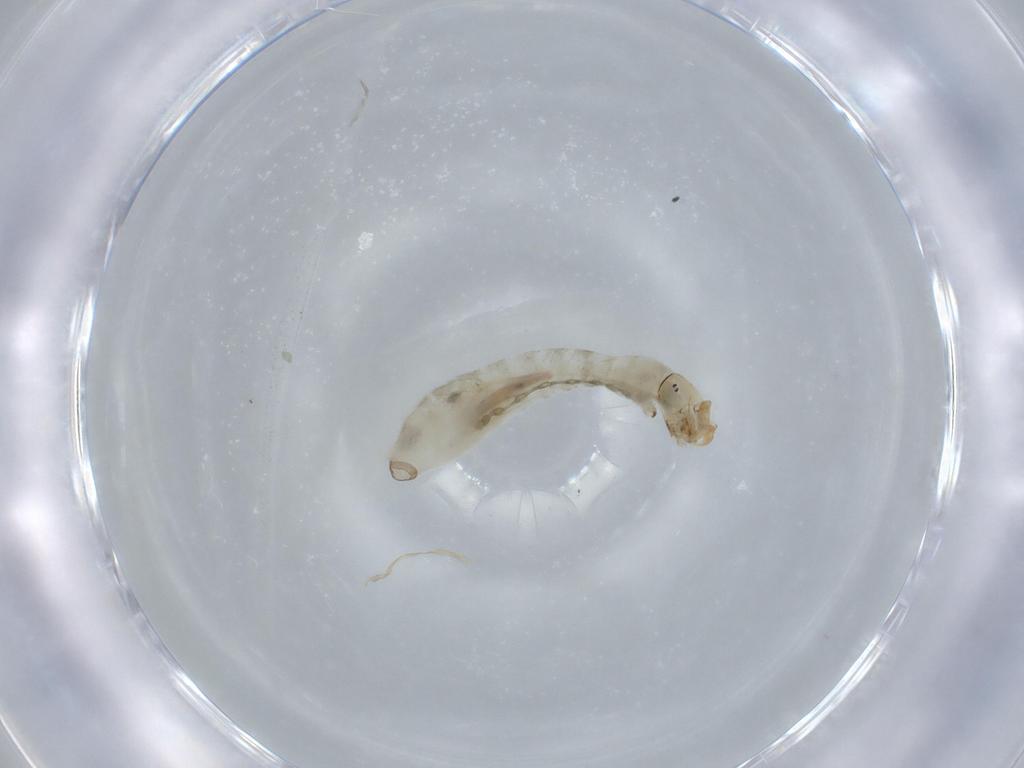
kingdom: Animalia
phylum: Arthropoda
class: Insecta
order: Diptera
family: Simuliidae
